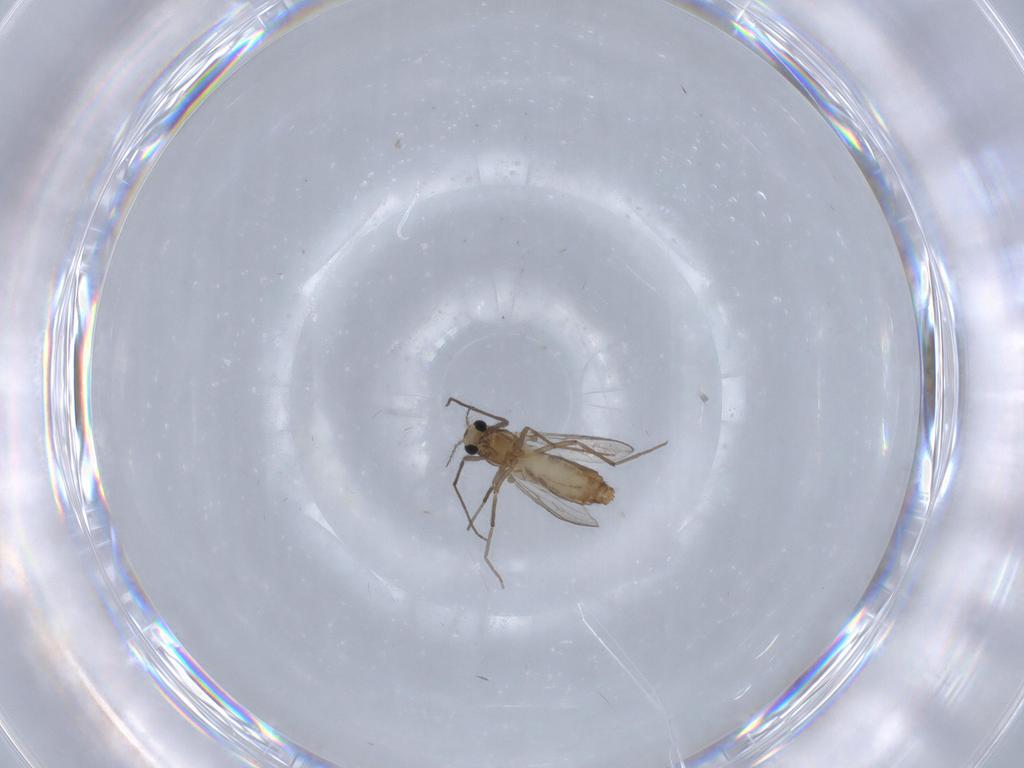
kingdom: Animalia
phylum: Arthropoda
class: Insecta
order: Diptera
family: Chironomidae
